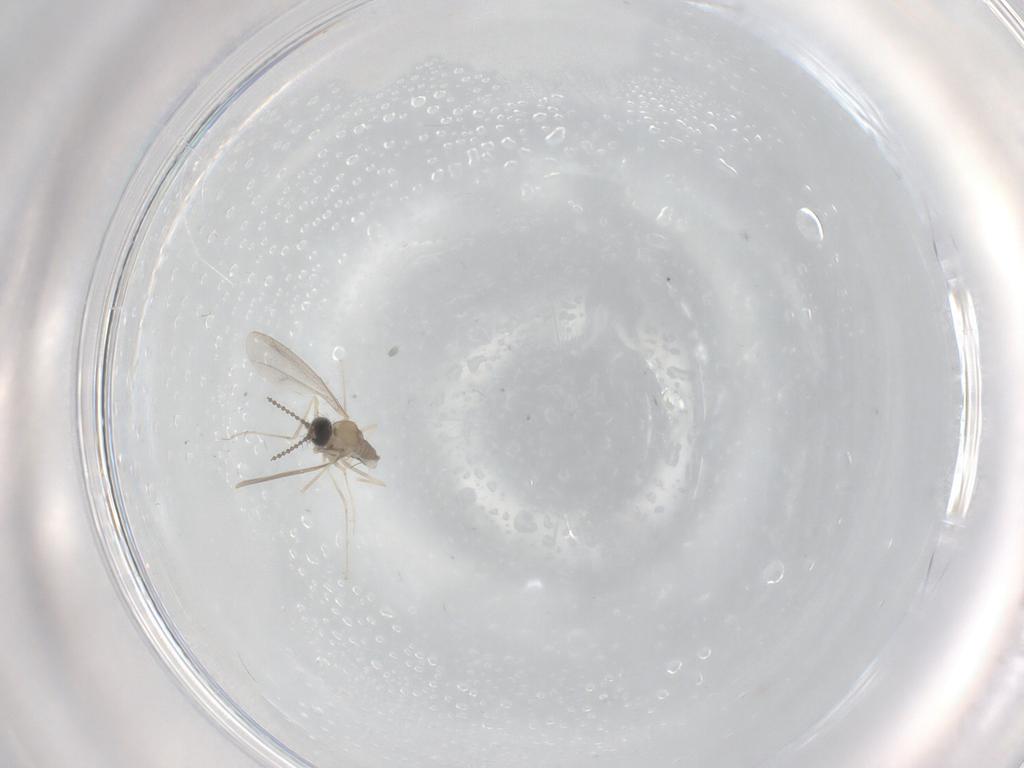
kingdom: Animalia
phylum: Arthropoda
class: Insecta
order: Diptera
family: Cecidomyiidae
